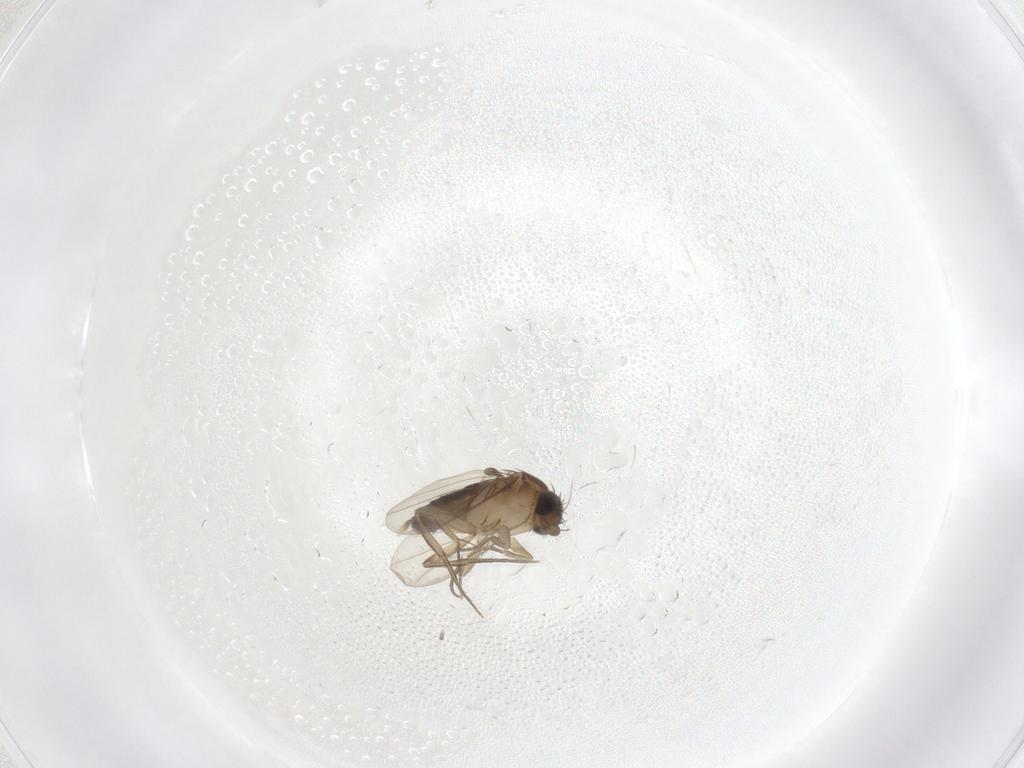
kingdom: Animalia
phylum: Arthropoda
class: Insecta
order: Diptera
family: Phoridae
